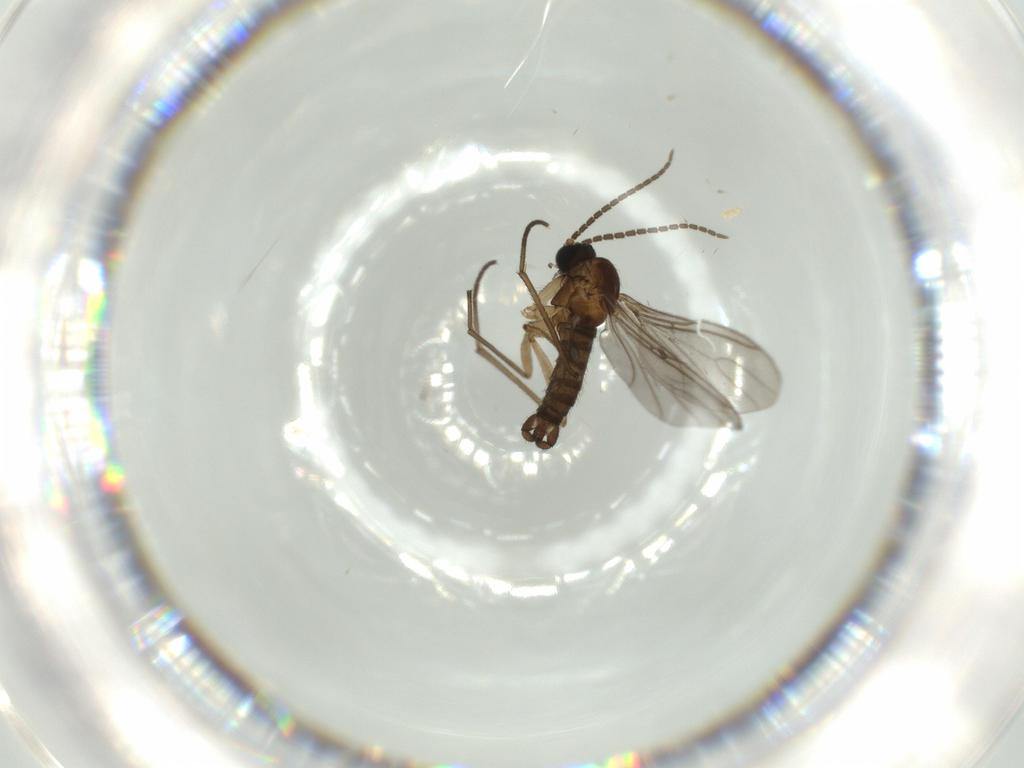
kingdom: Animalia
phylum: Arthropoda
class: Insecta
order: Diptera
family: Sciaridae
